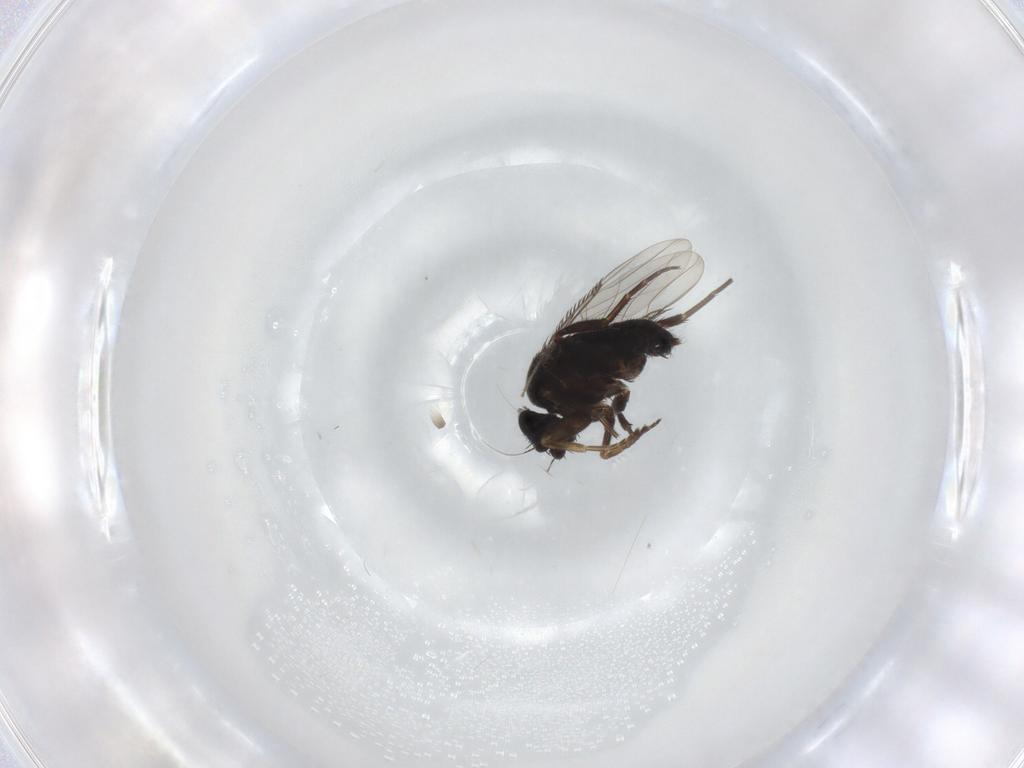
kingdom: Animalia
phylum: Arthropoda
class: Insecta
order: Diptera
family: Phoridae
